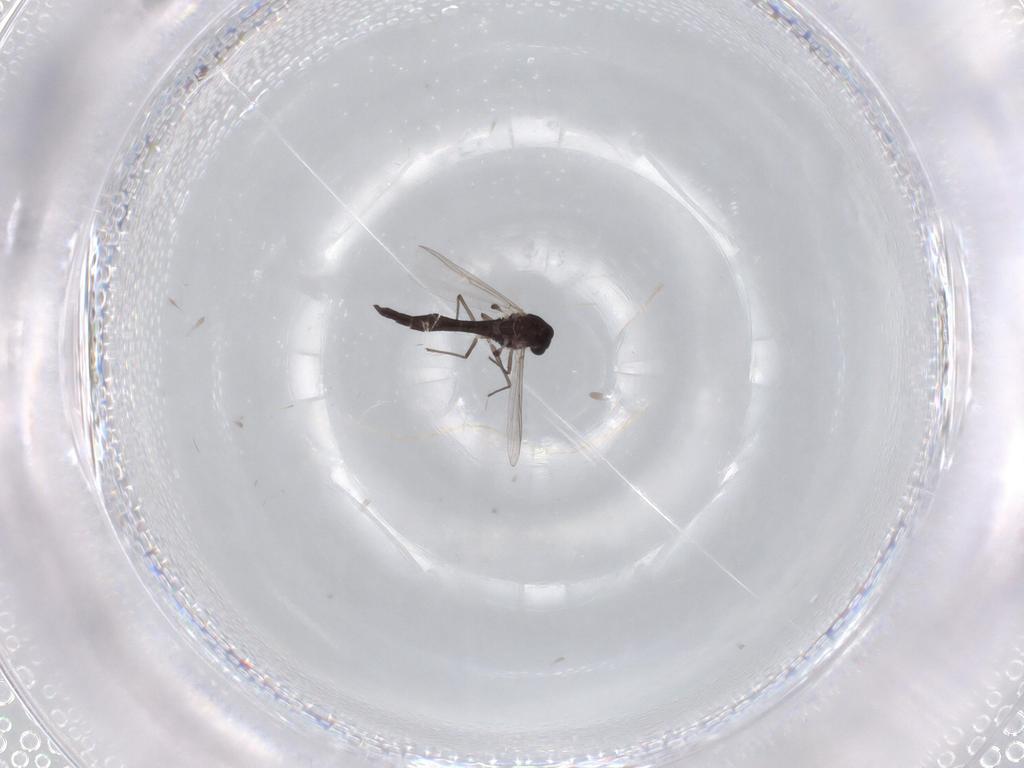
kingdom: Animalia
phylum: Arthropoda
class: Insecta
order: Diptera
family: Chironomidae
